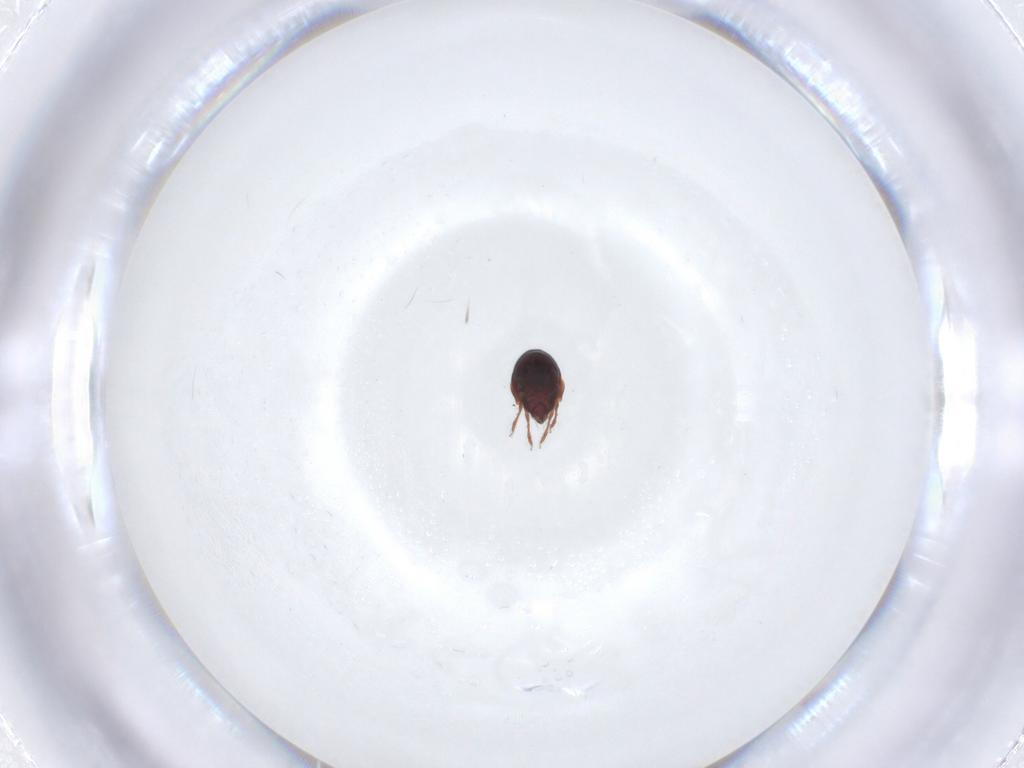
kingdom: Animalia
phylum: Arthropoda
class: Arachnida
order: Sarcoptiformes
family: Ceratozetidae
